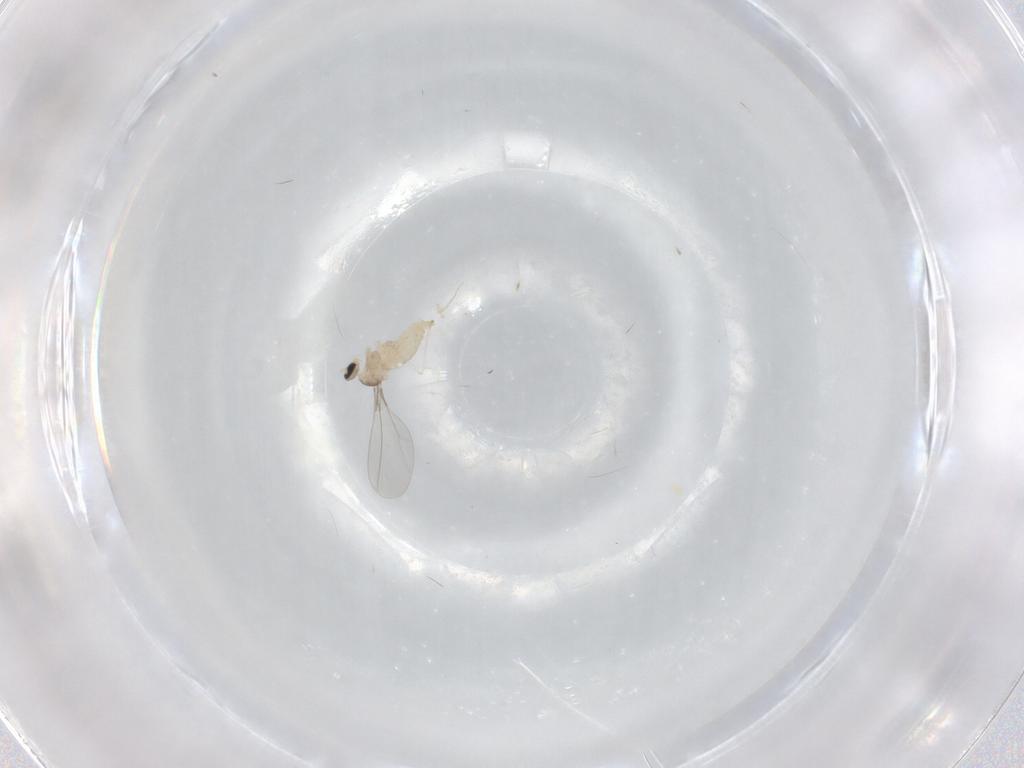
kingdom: Animalia
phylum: Arthropoda
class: Insecta
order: Diptera
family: Cecidomyiidae
